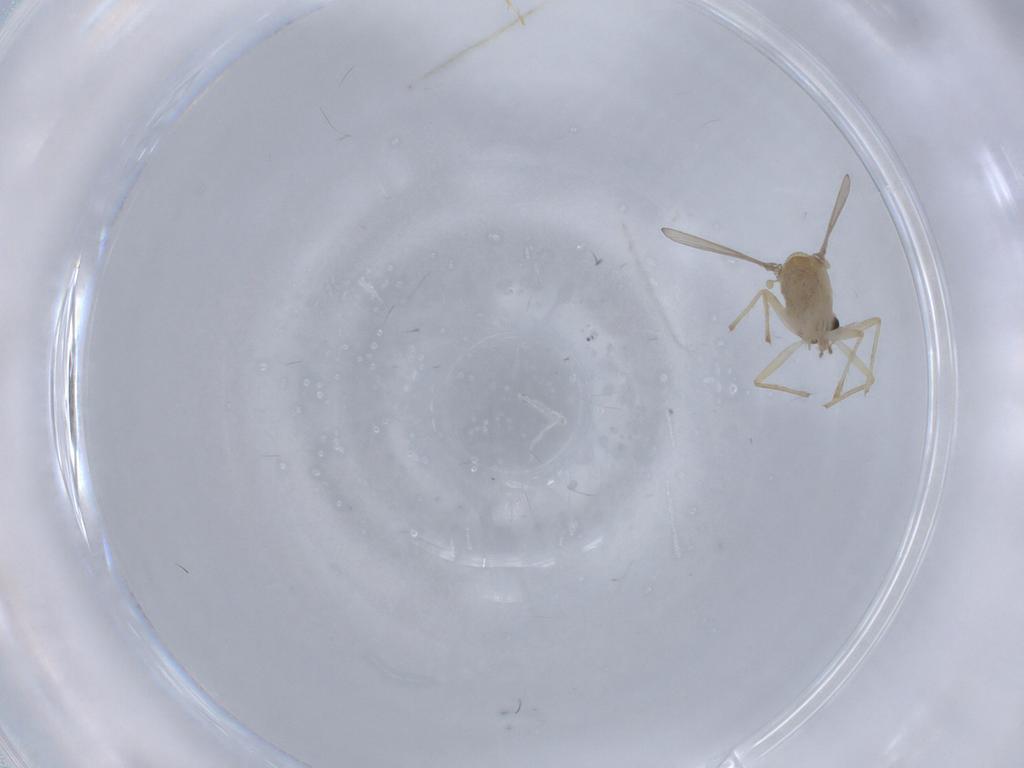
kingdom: Animalia
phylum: Arthropoda
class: Insecta
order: Diptera
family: Chironomidae
